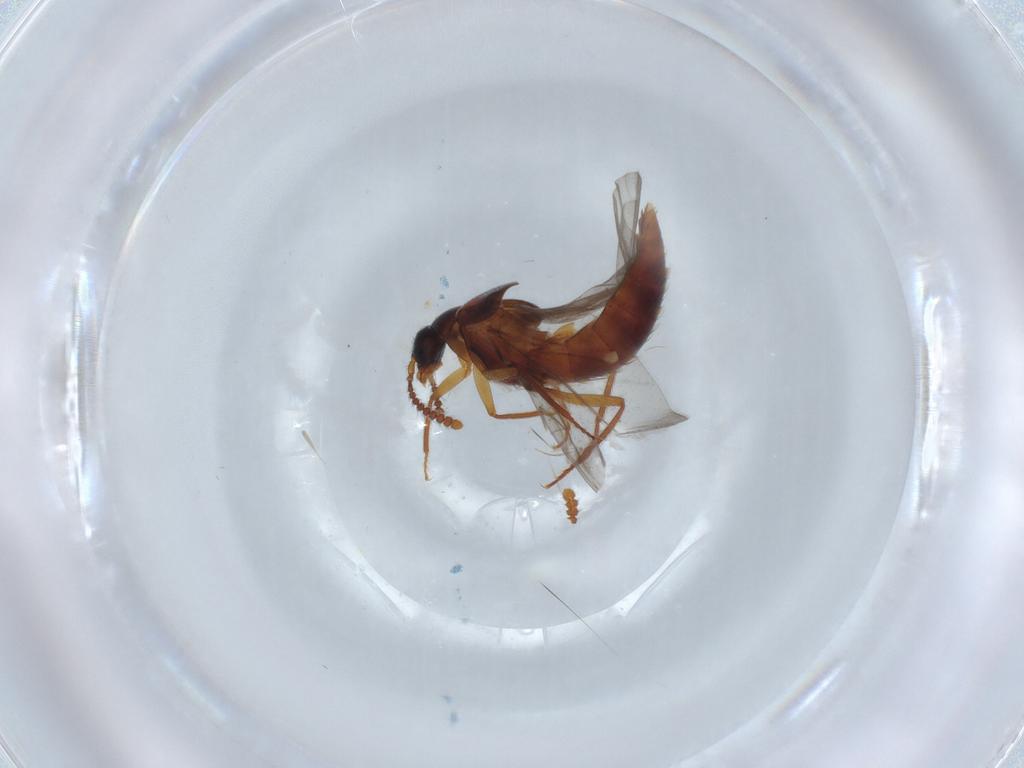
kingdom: Animalia
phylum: Arthropoda
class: Insecta
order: Coleoptera
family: Staphylinidae
